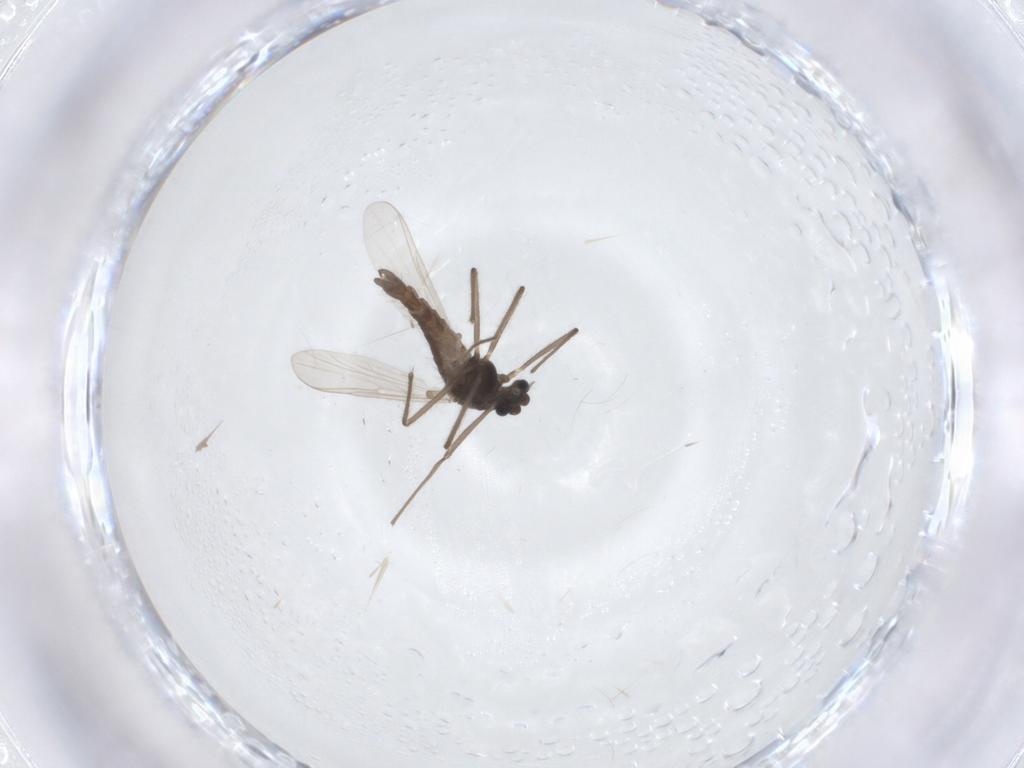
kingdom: Animalia
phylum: Arthropoda
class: Insecta
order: Diptera
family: Chironomidae
